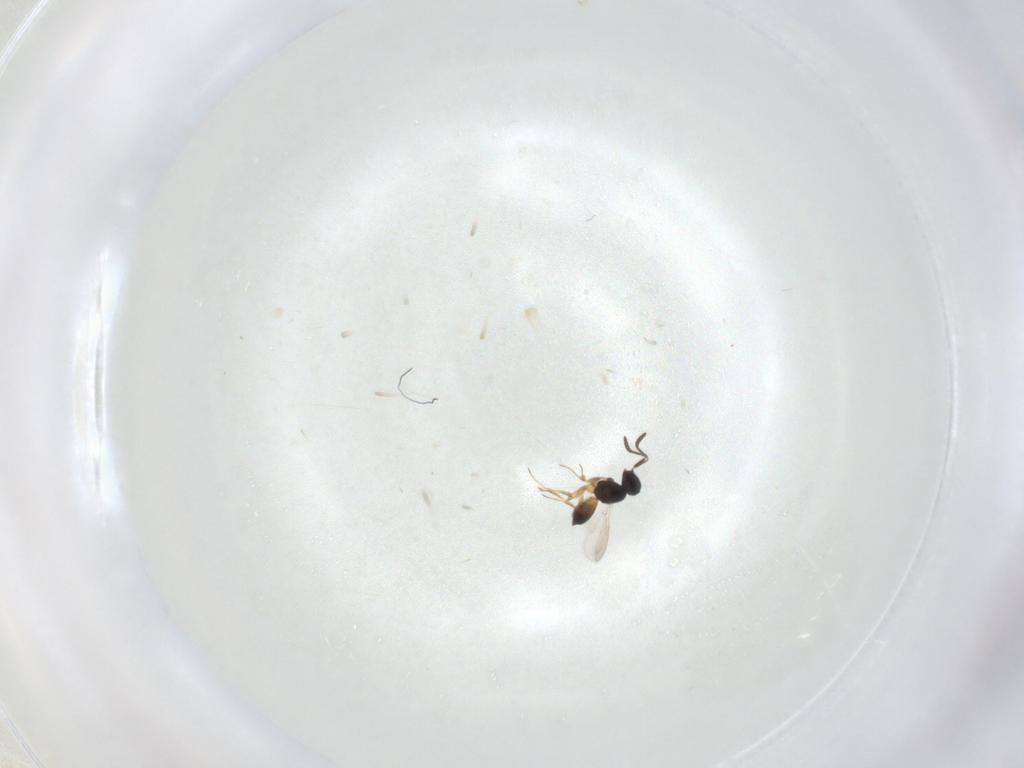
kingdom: Animalia
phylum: Arthropoda
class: Insecta
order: Hymenoptera
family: Scelionidae
